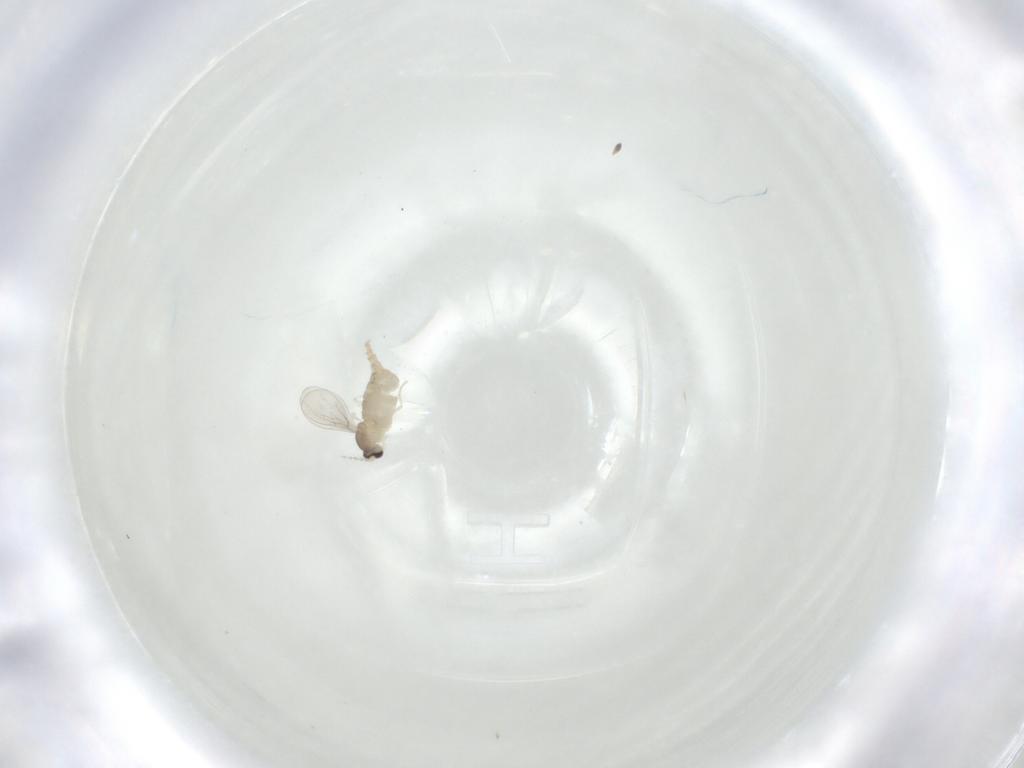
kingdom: Animalia
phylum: Arthropoda
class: Insecta
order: Diptera
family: Cecidomyiidae
